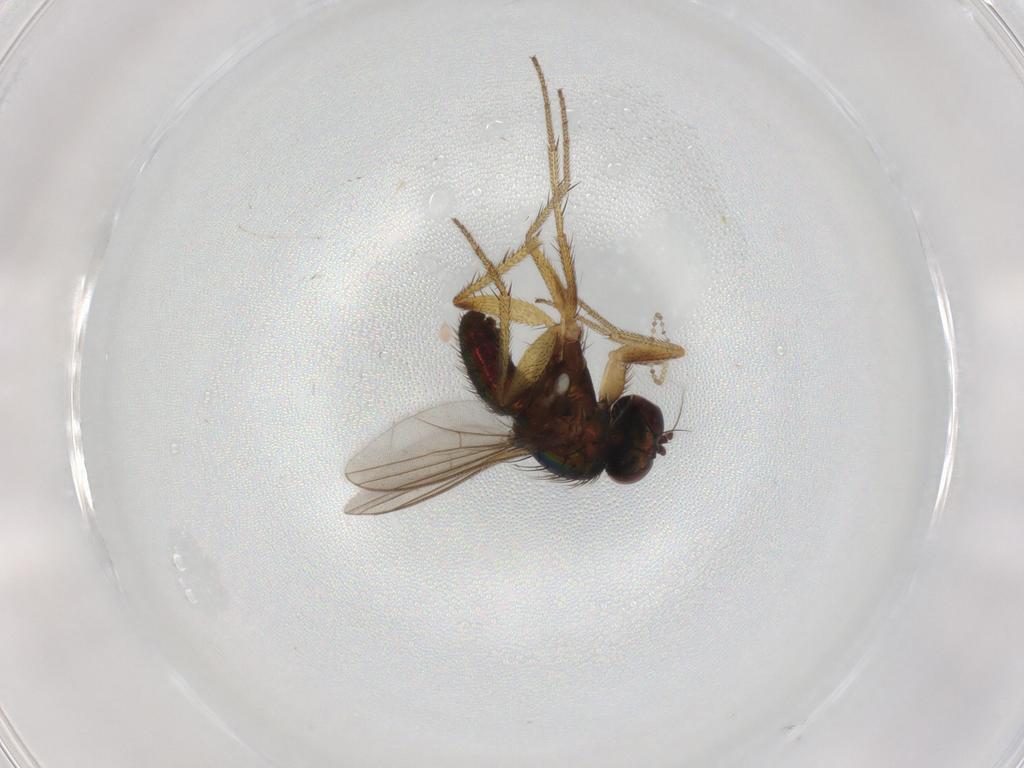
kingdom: Animalia
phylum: Arthropoda
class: Insecta
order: Diptera
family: Dolichopodidae
